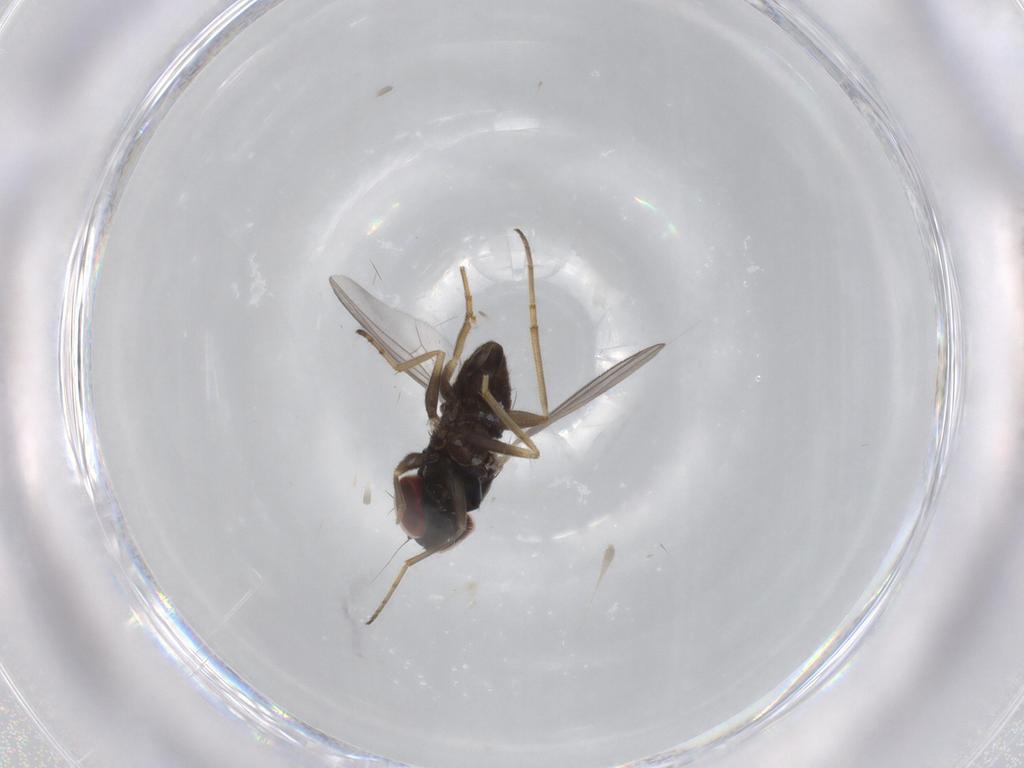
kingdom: Animalia
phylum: Arthropoda
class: Insecta
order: Diptera
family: Dolichopodidae
